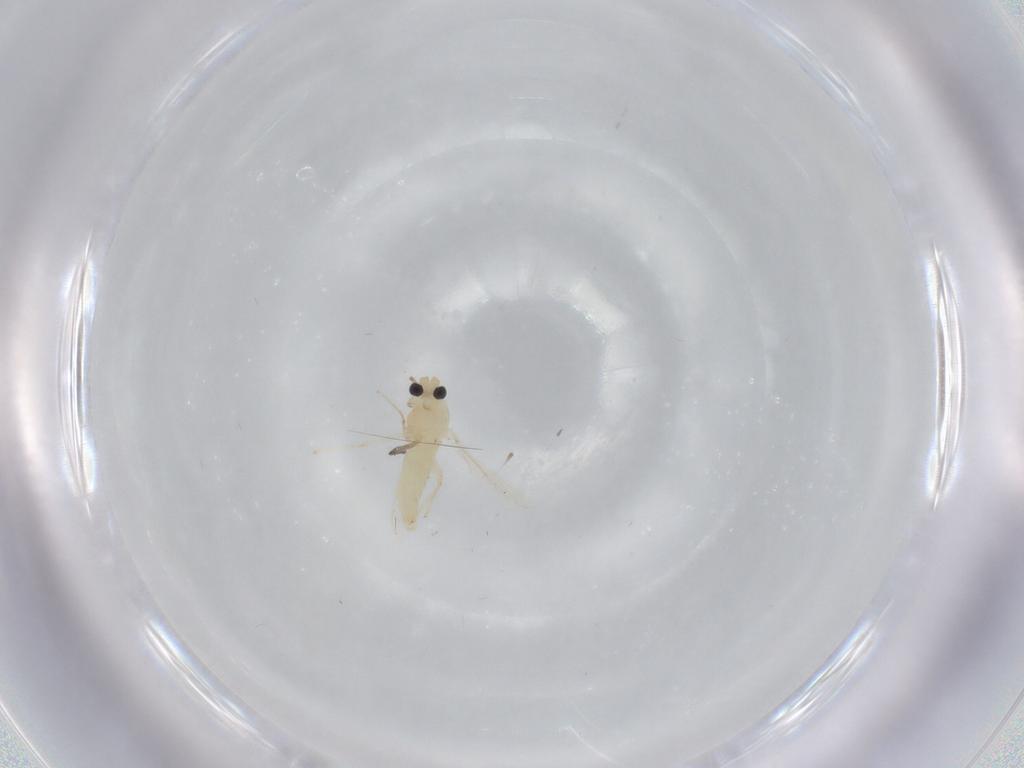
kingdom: Animalia
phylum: Arthropoda
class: Insecta
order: Diptera
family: Chironomidae
